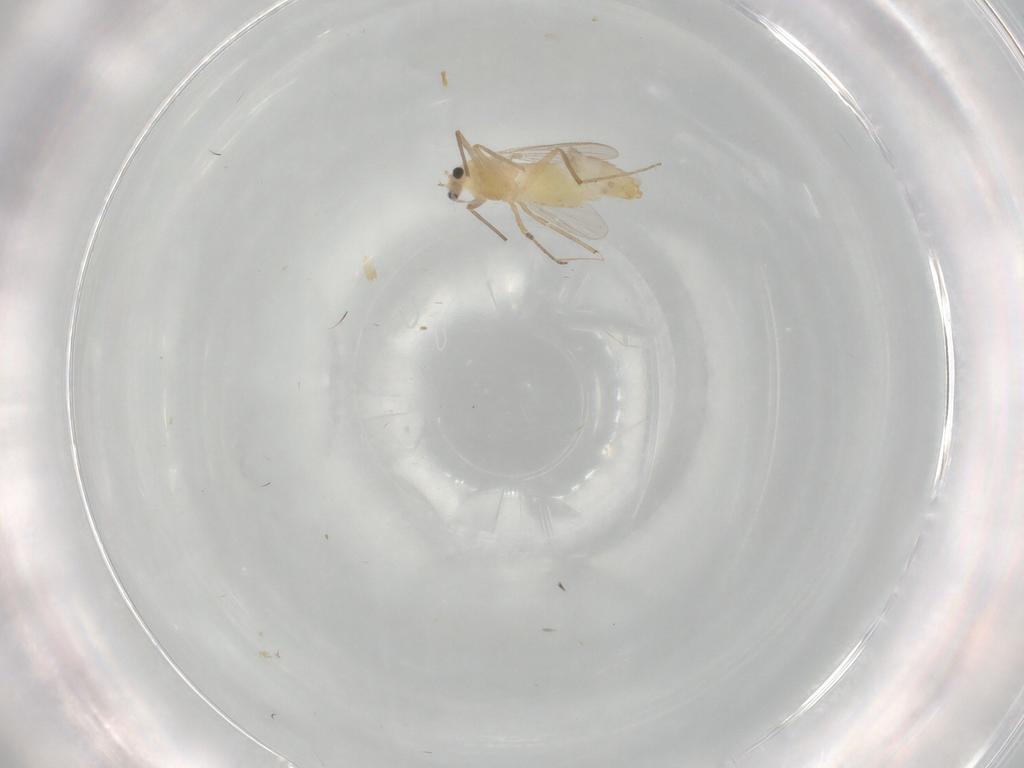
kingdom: Animalia
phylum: Arthropoda
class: Insecta
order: Diptera
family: Chironomidae
